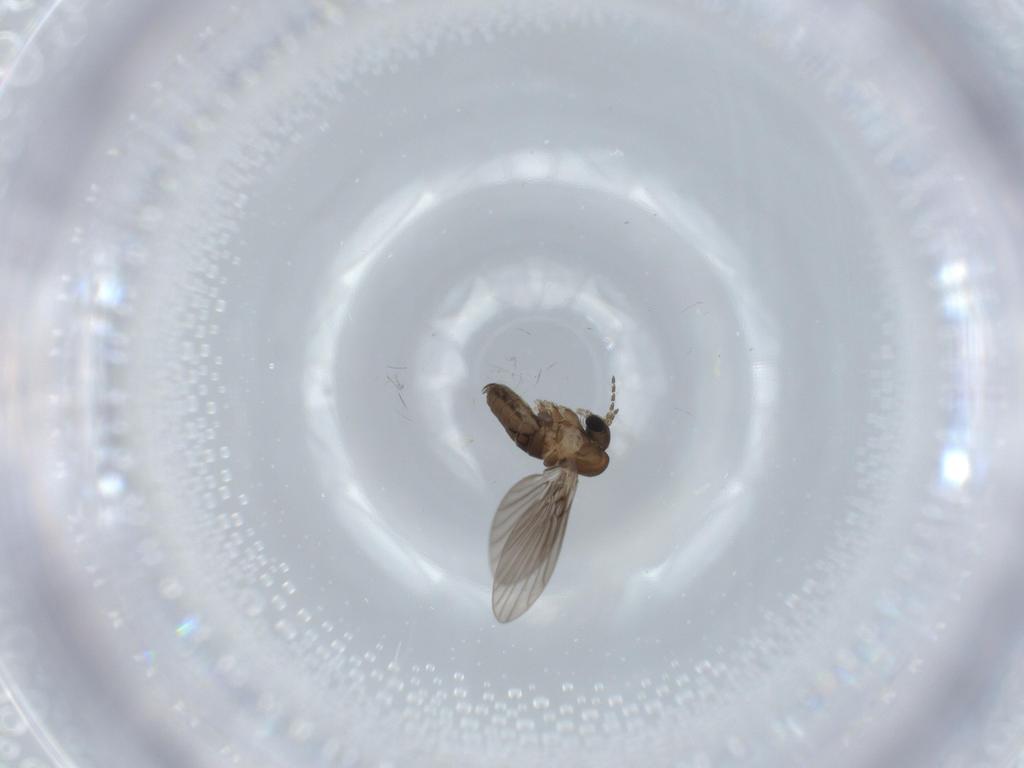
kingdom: Animalia
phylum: Arthropoda
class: Insecta
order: Diptera
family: Psychodidae
